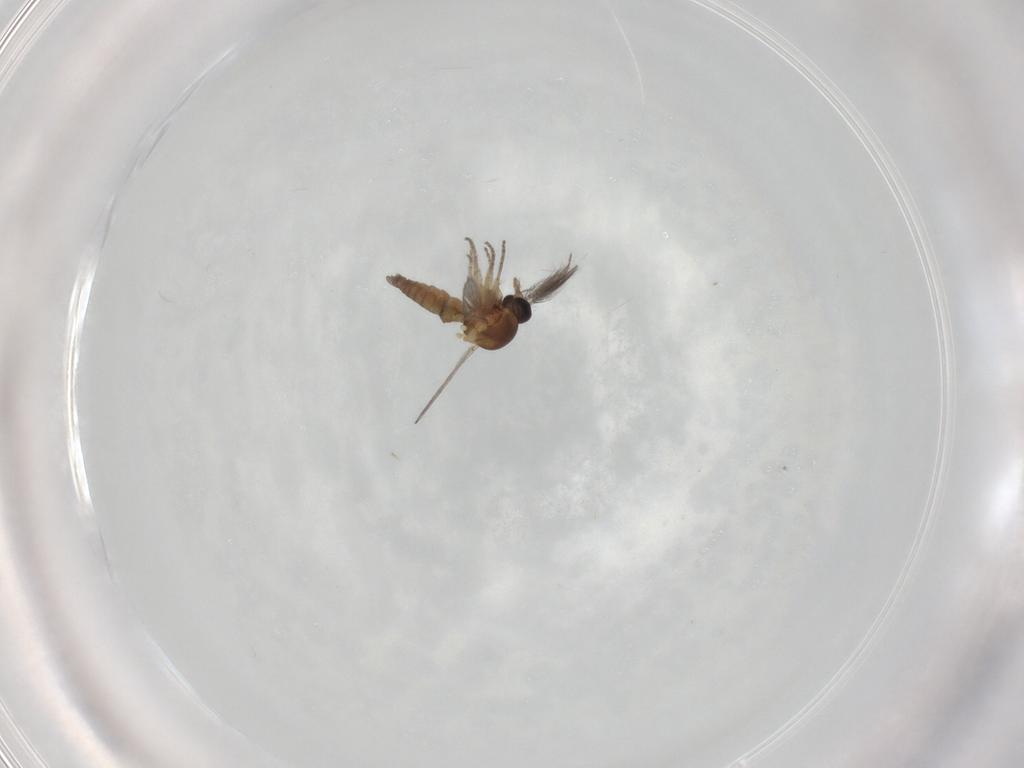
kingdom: Animalia
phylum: Arthropoda
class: Insecta
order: Diptera
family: Ceratopogonidae
